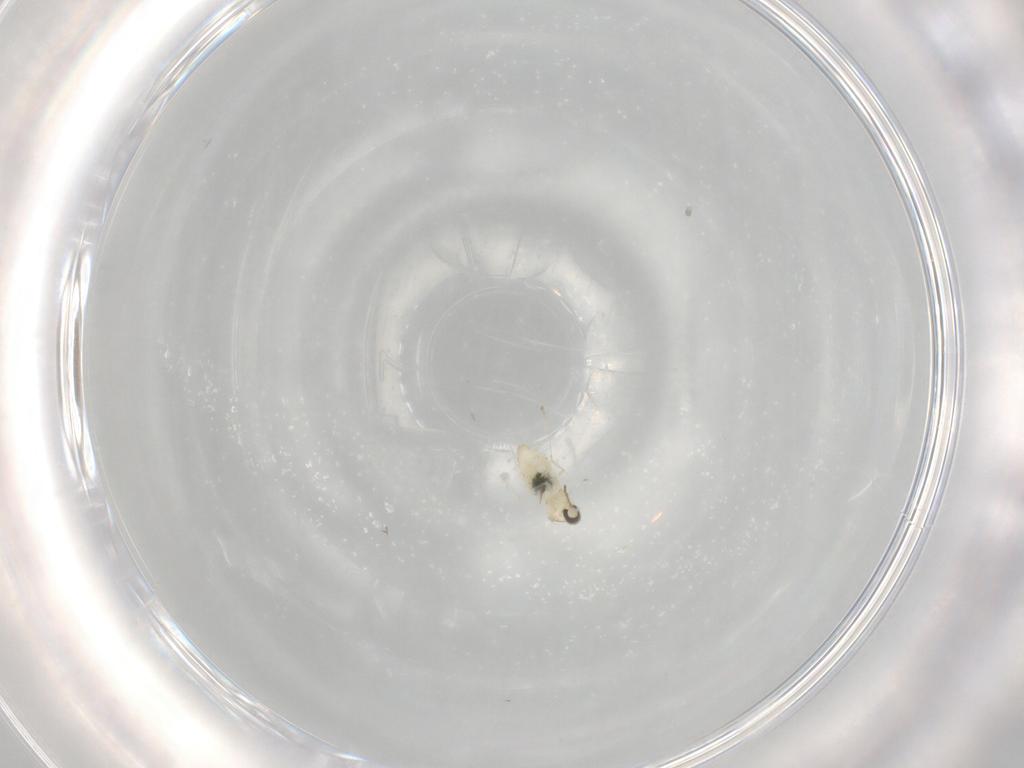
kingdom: Animalia
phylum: Arthropoda
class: Insecta
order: Diptera
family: Cecidomyiidae
